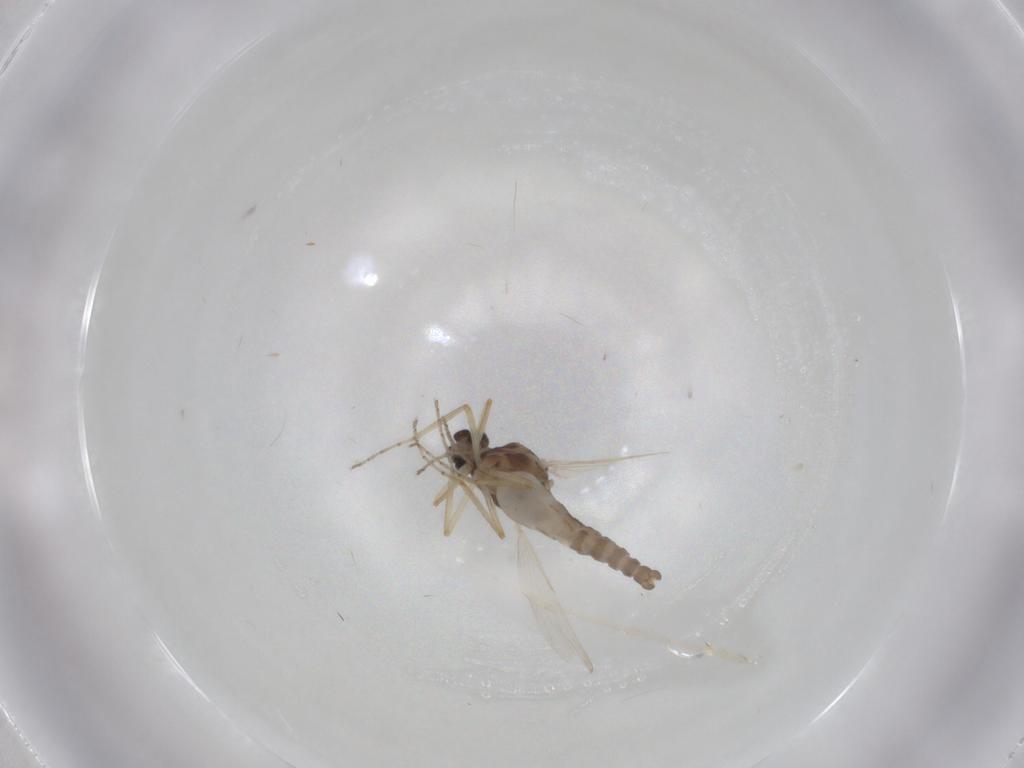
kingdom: Animalia
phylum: Arthropoda
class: Insecta
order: Diptera
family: Ceratopogonidae
